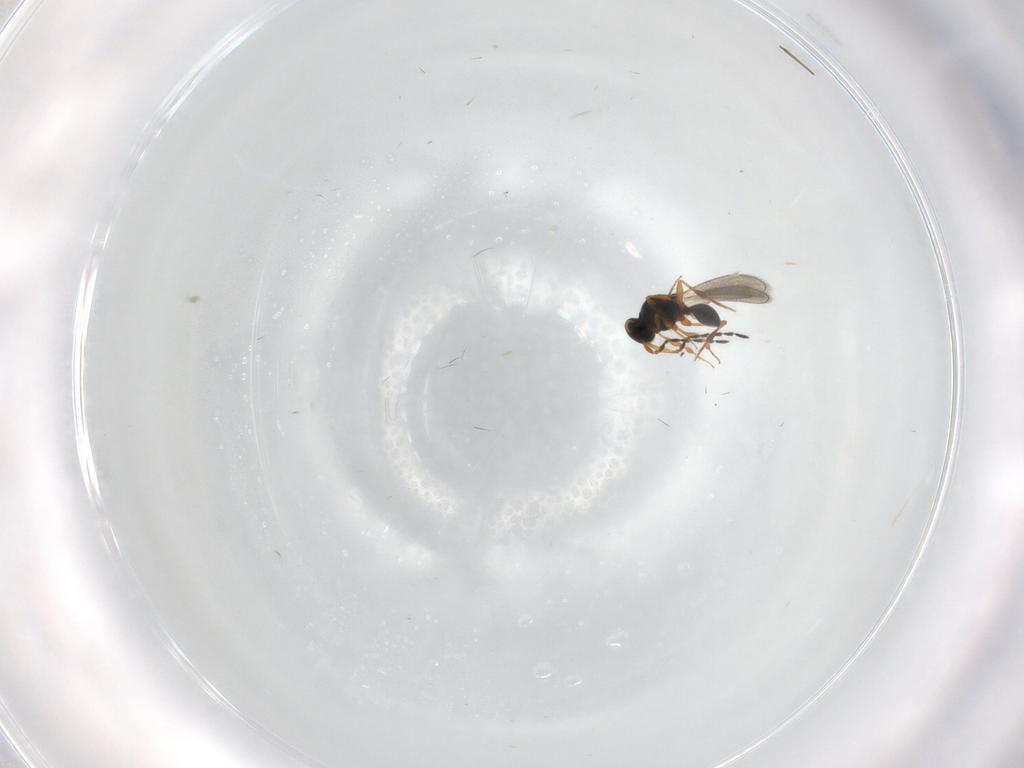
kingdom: Animalia
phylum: Arthropoda
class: Insecta
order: Hymenoptera
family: Platygastridae
